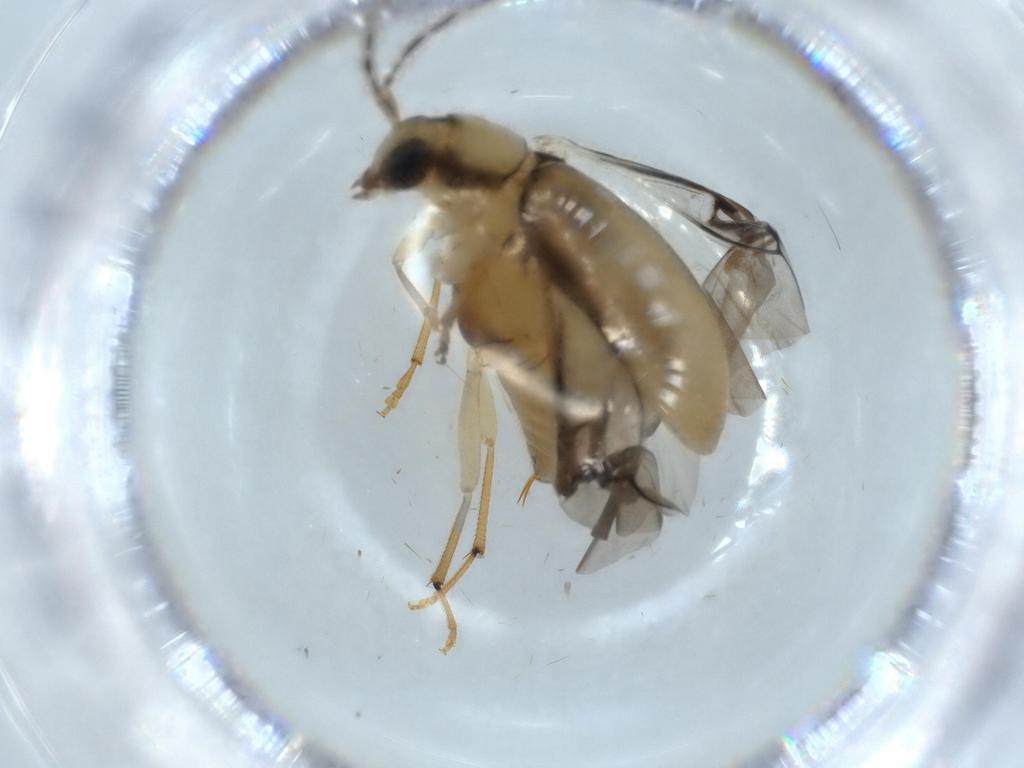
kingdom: Animalia
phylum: Arthropoda
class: Insecta
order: Coleoptera
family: Chrysomelidae
